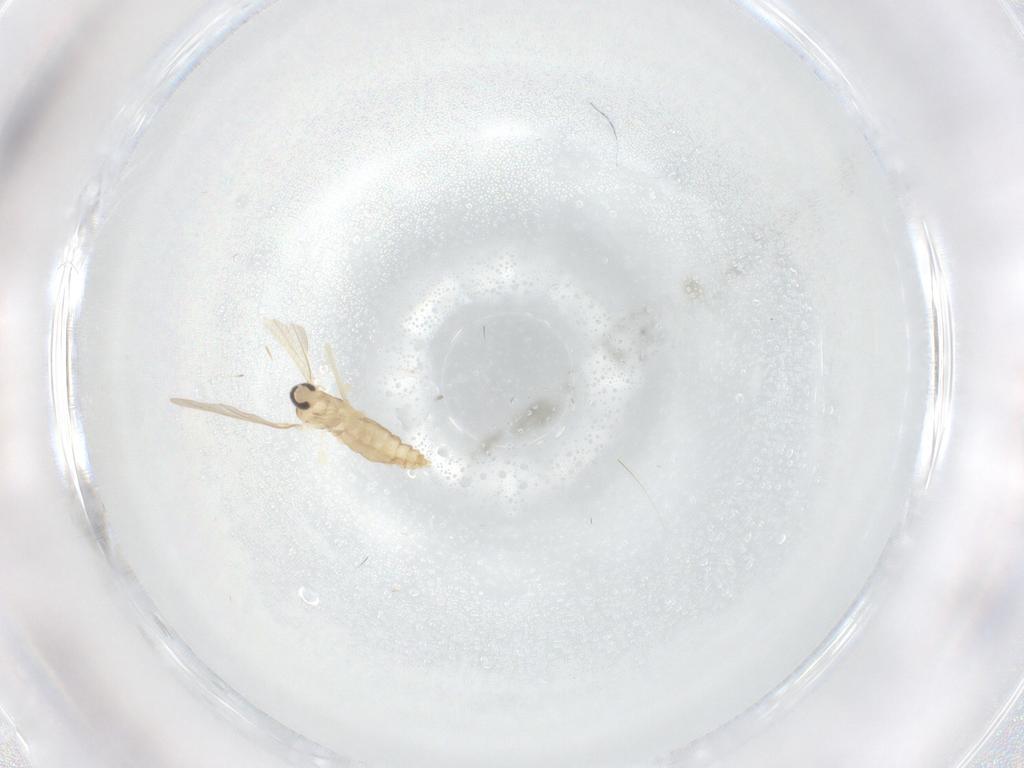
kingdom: Animalia
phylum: Arthropoda
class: Insecta
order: Diptera
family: Cecidomyiidae
